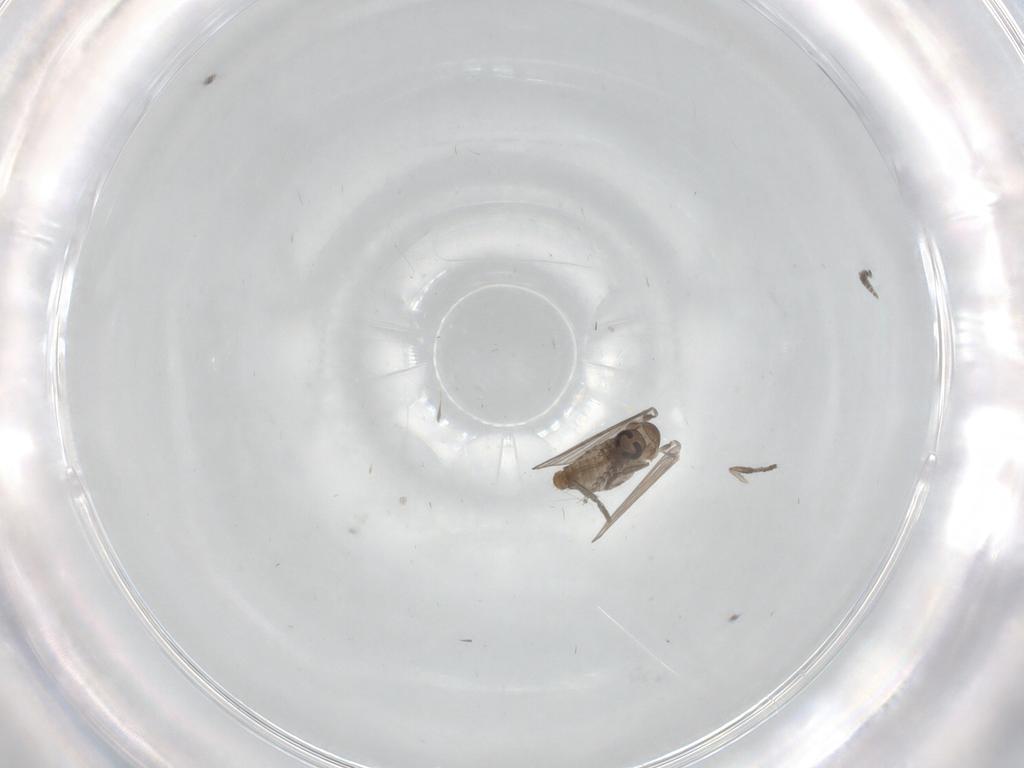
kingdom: Animalia
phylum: Arthropoda
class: Insecta
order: Diptera
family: Psychodidae
